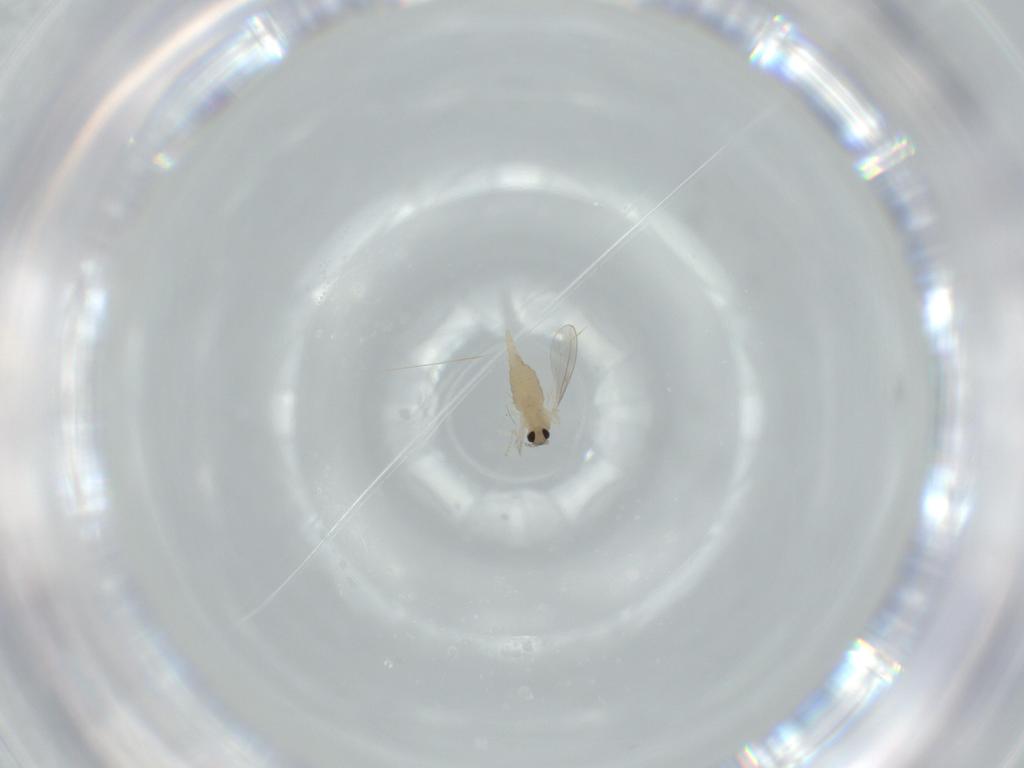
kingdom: Animalia
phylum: Arthropoda
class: Insecta
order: Diptera
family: Cecidomyiidae
